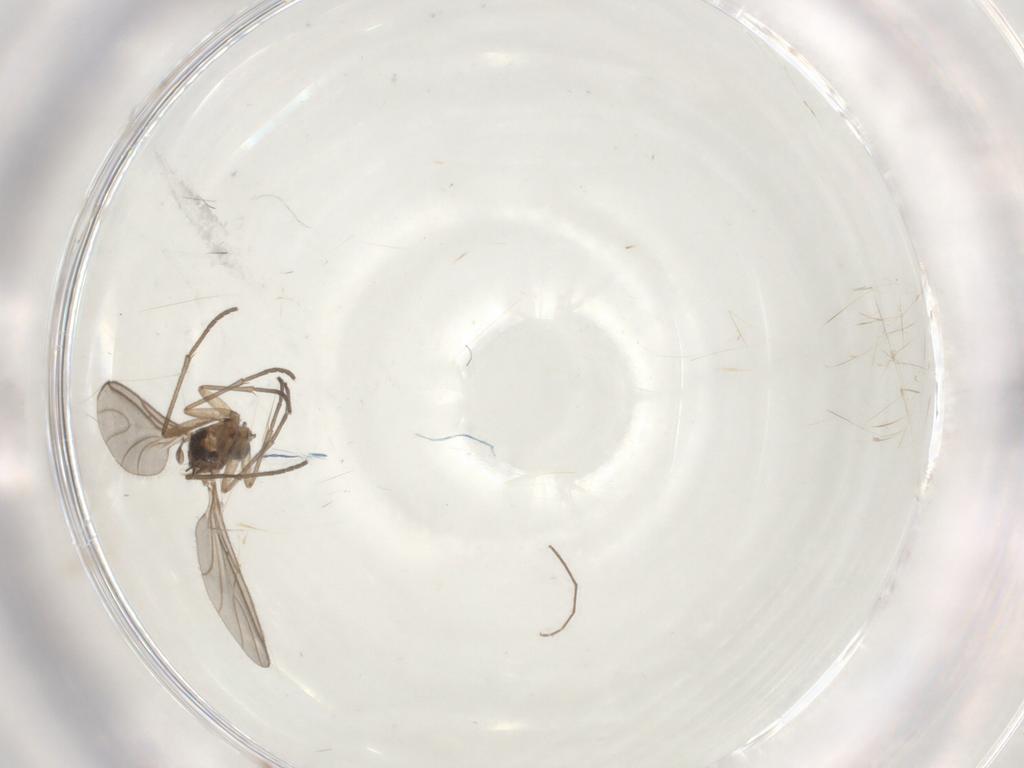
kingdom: Animalia
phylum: Arthropoda
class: Insecta
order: Diptera
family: Sciaridae
